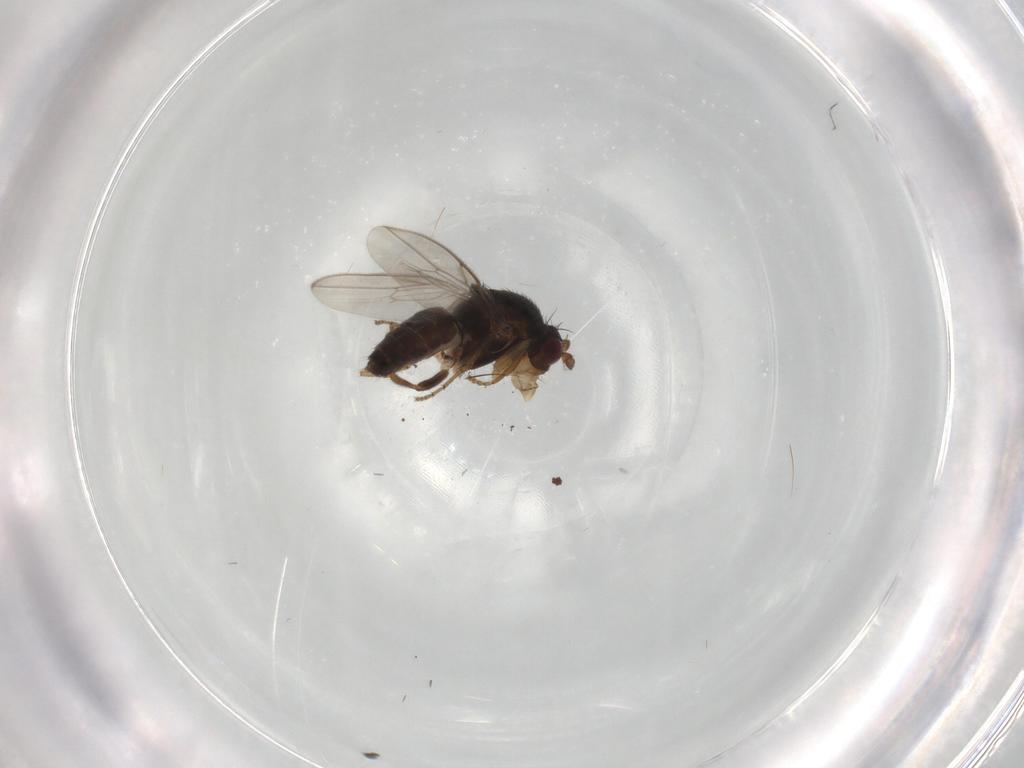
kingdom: Animalia
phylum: Arthropoda
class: Insecta
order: Diptera
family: Sphaeroceridae
